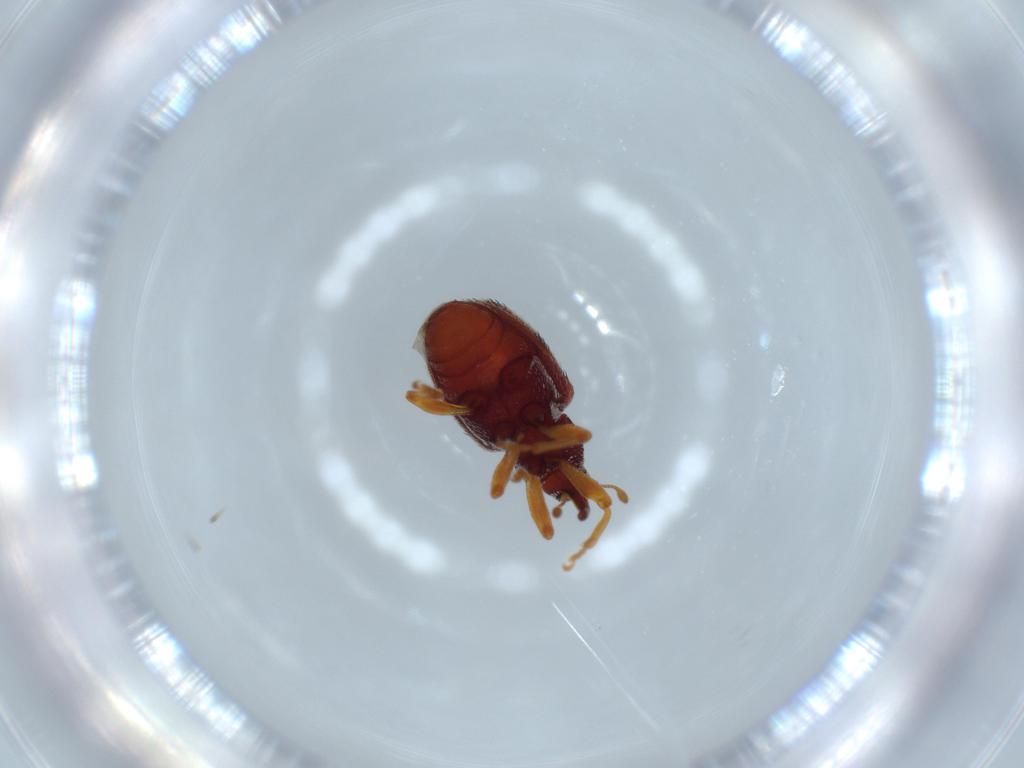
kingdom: Animalia
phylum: Arthropoda
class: Insecta
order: Coleoptera
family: Curculionidae
